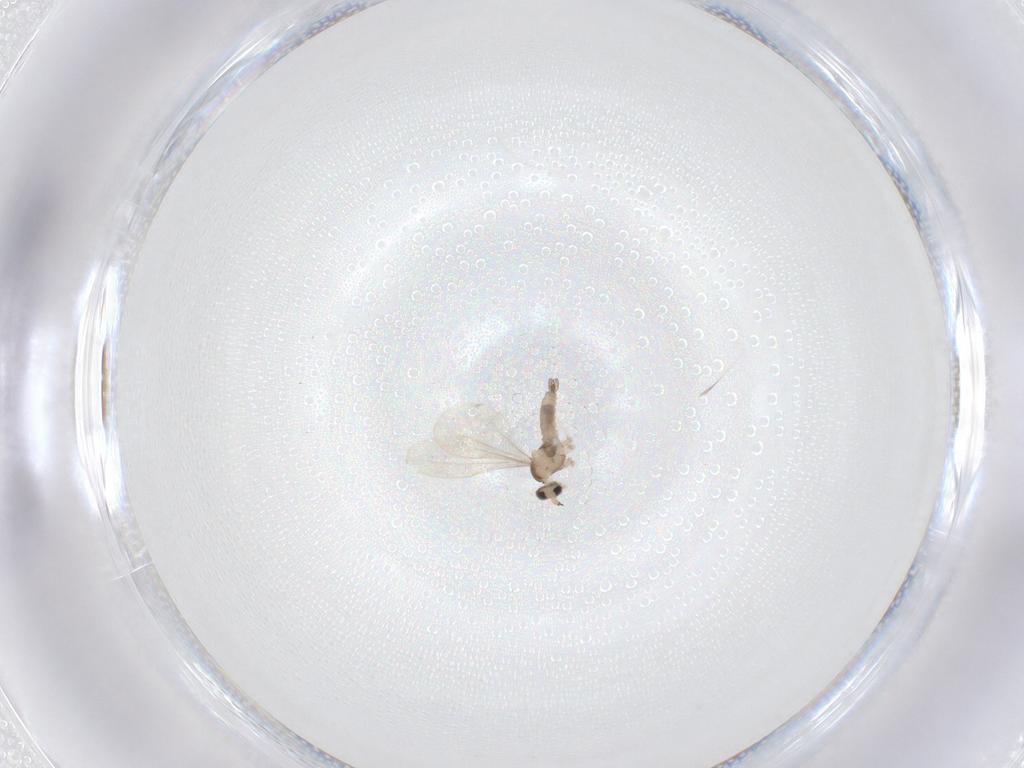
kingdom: Animalia
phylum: Arthropoda
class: Insecta
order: Diptera
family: Cecidomyiidae
